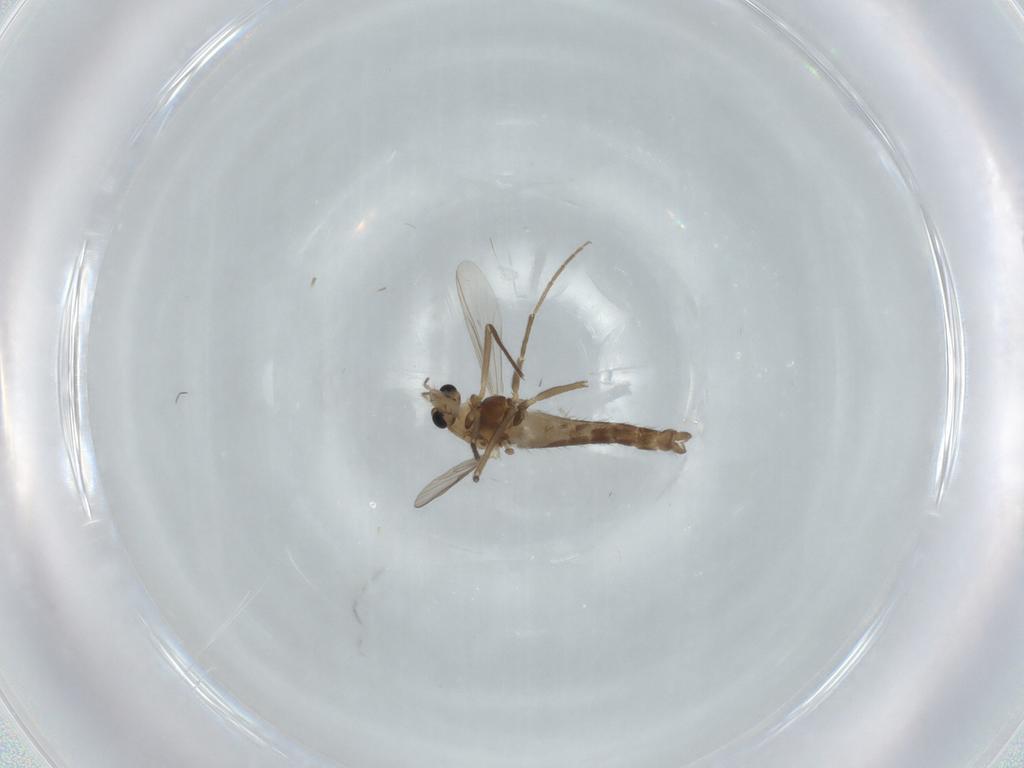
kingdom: Animalia
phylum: Arthropoda
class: Insecta
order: Diptera
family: Chironomidae
